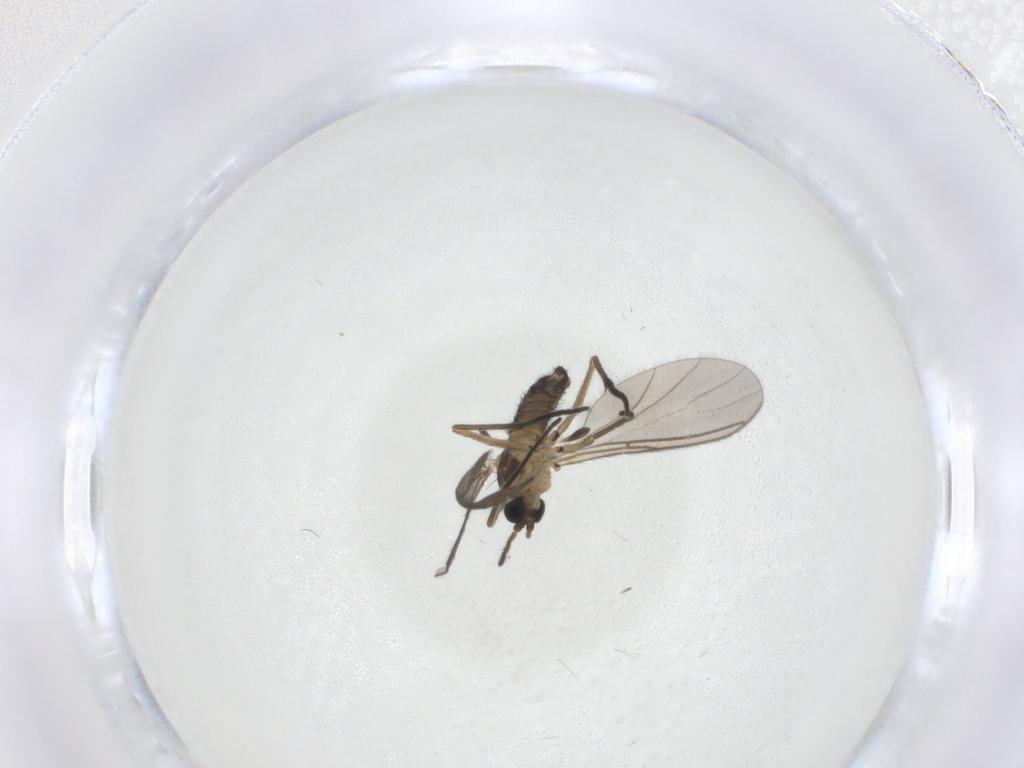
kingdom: Animalia
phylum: Arthropoda
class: Insecta
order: Diptera
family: Sciaridae
